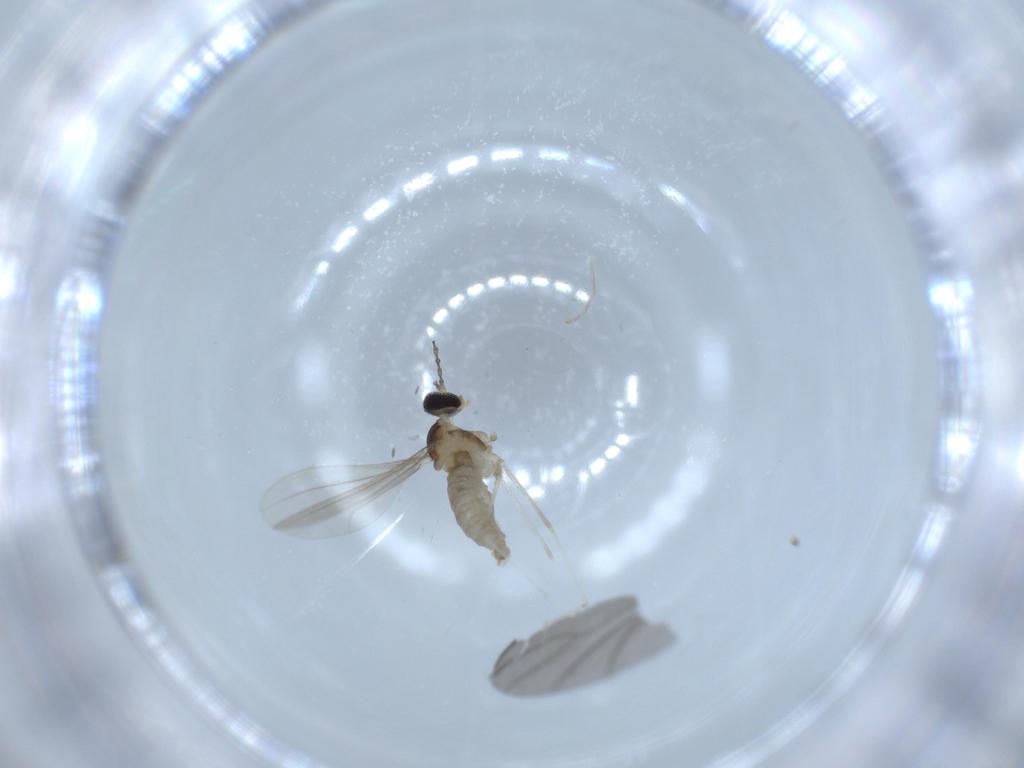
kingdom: Animalia
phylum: Arthropoda
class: Insecta
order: Diptera
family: Cecidomyiidae
